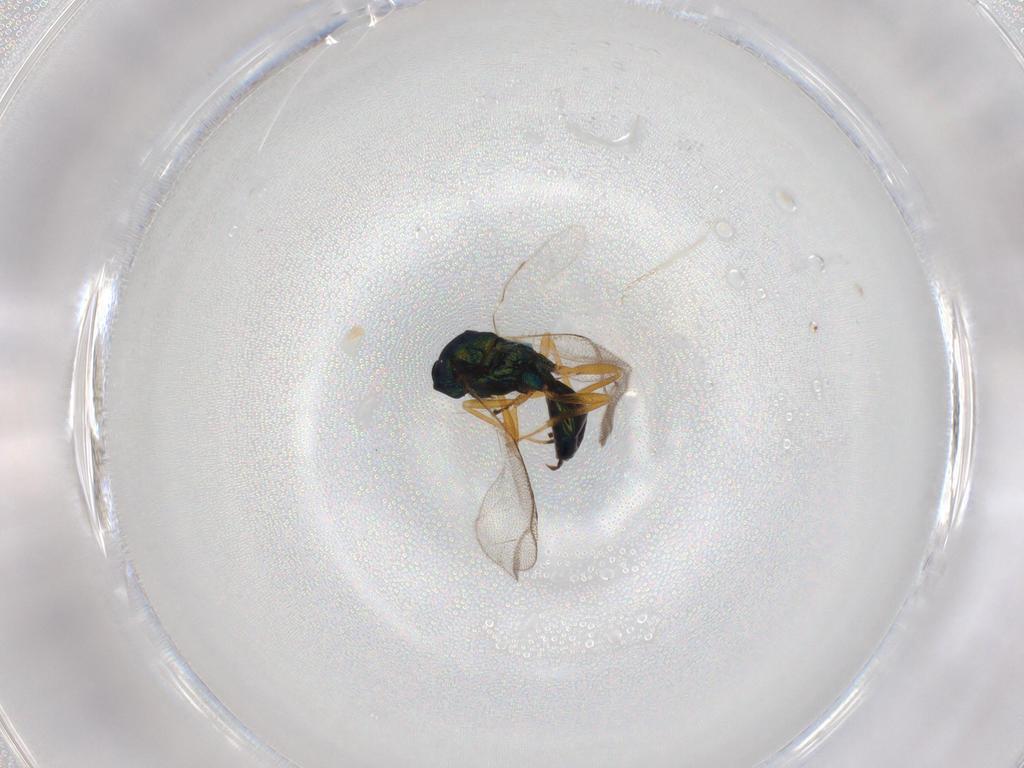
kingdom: Animalia
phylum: Arthropoda
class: Insecta
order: Hymenoptera
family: Pteromalidae
